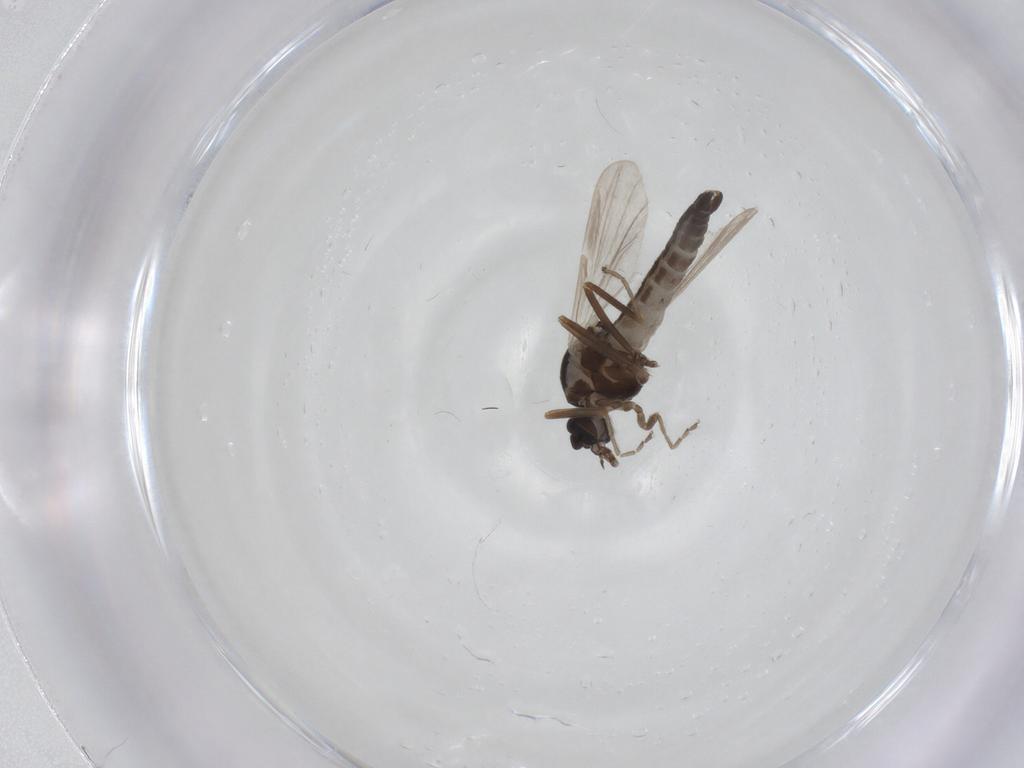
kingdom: Animalia
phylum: Arthropoda
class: Insecta
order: Diptera
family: Ceratopogonidae
